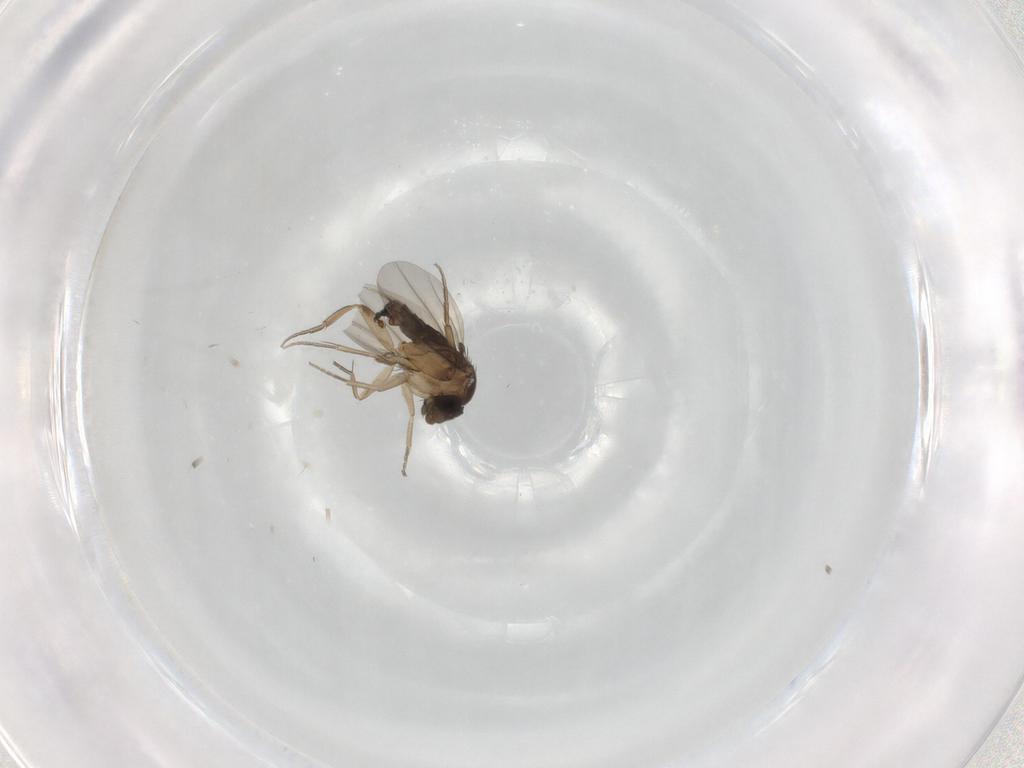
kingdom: Animalia
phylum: Arthropoda
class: Insecta
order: Diptera
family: Phoridae
